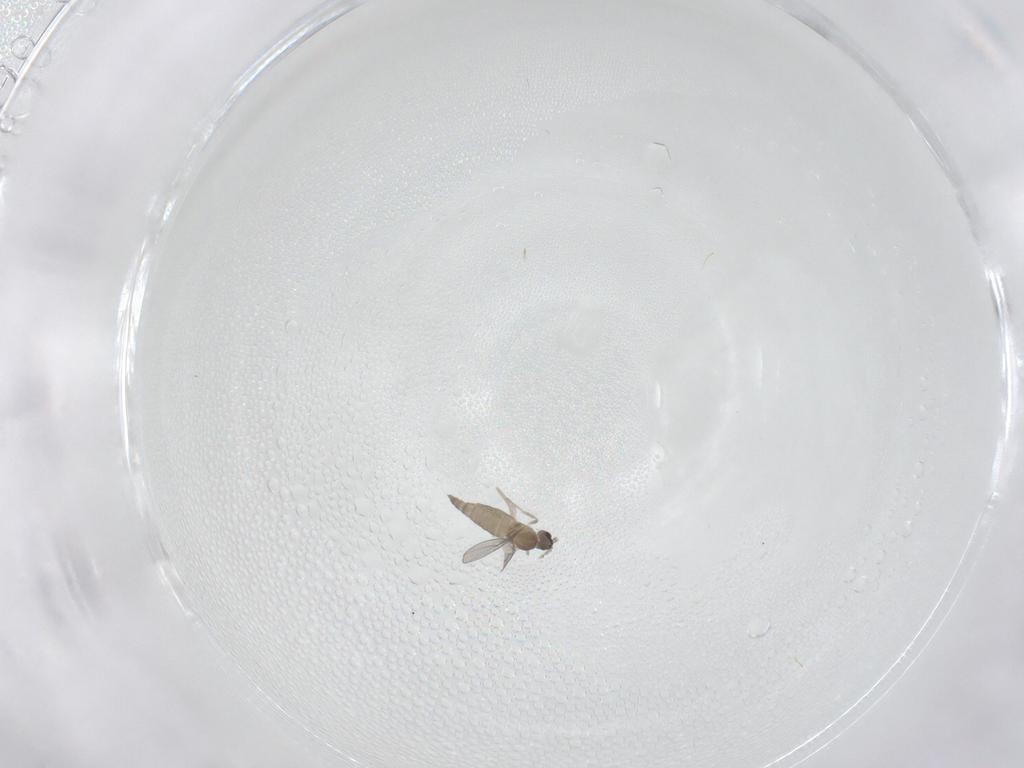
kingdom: Animalia
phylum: Arthropoda
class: Insecta
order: Diptera
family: Cecidomyiidae
